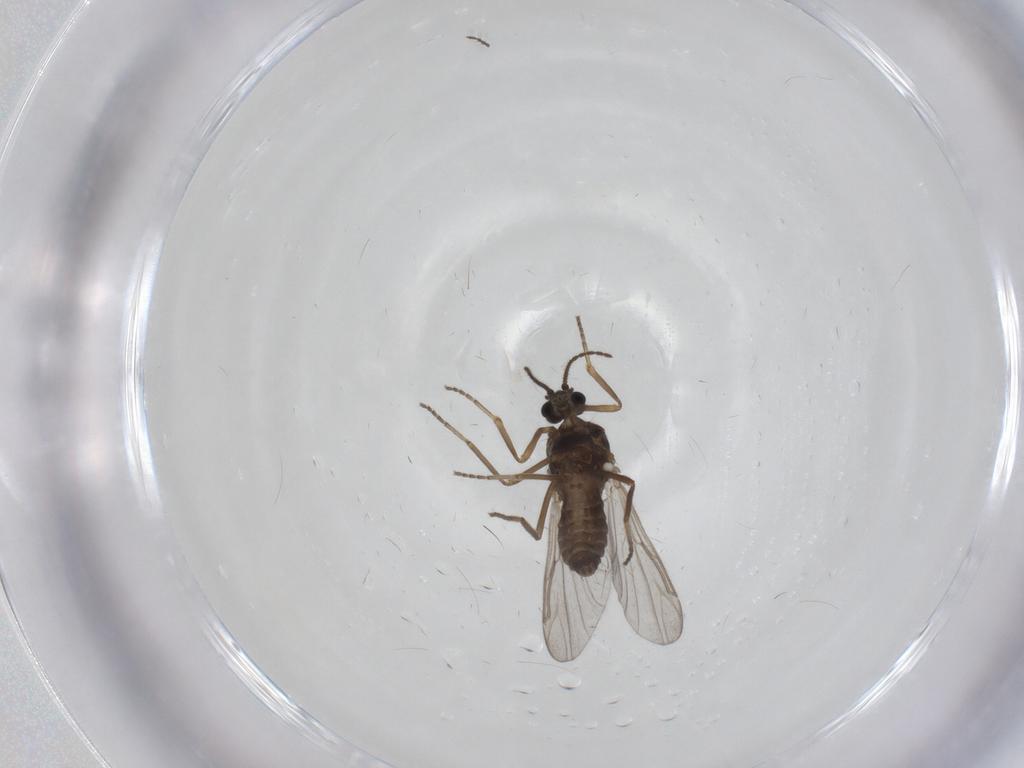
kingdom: Animalia
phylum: Arthropoda
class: Insecta
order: Diptera
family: Ceratopogonidae
